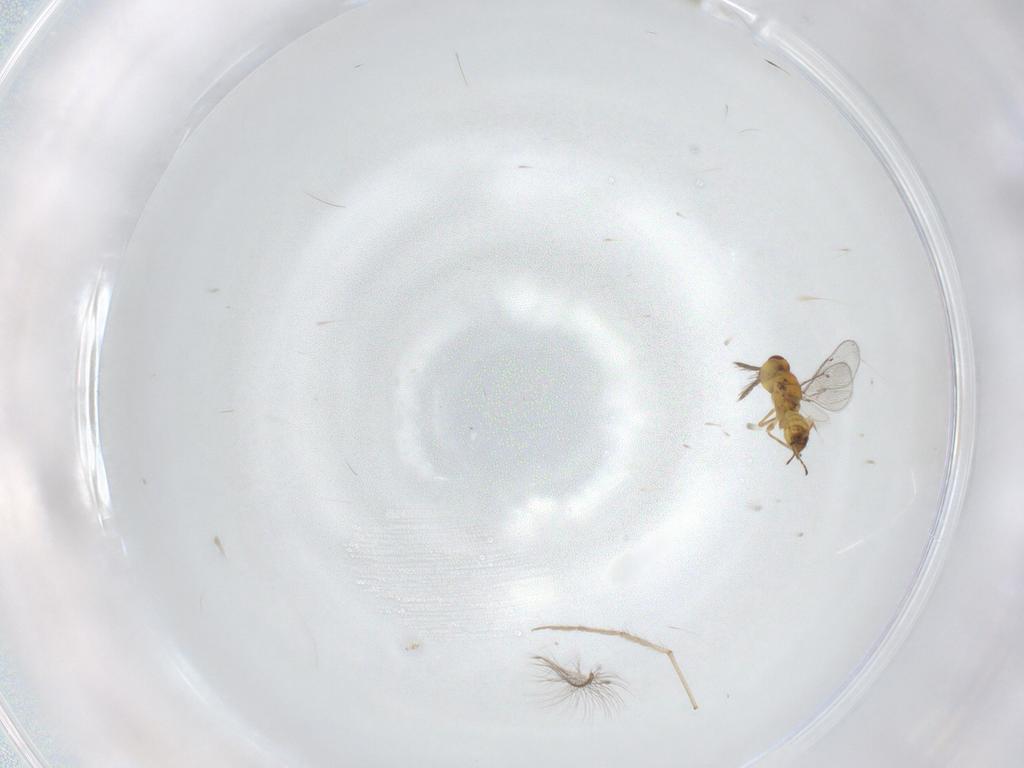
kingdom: Animalia
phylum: Arthropoda
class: Insecta
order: Hymenoptera
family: Eulophidae
